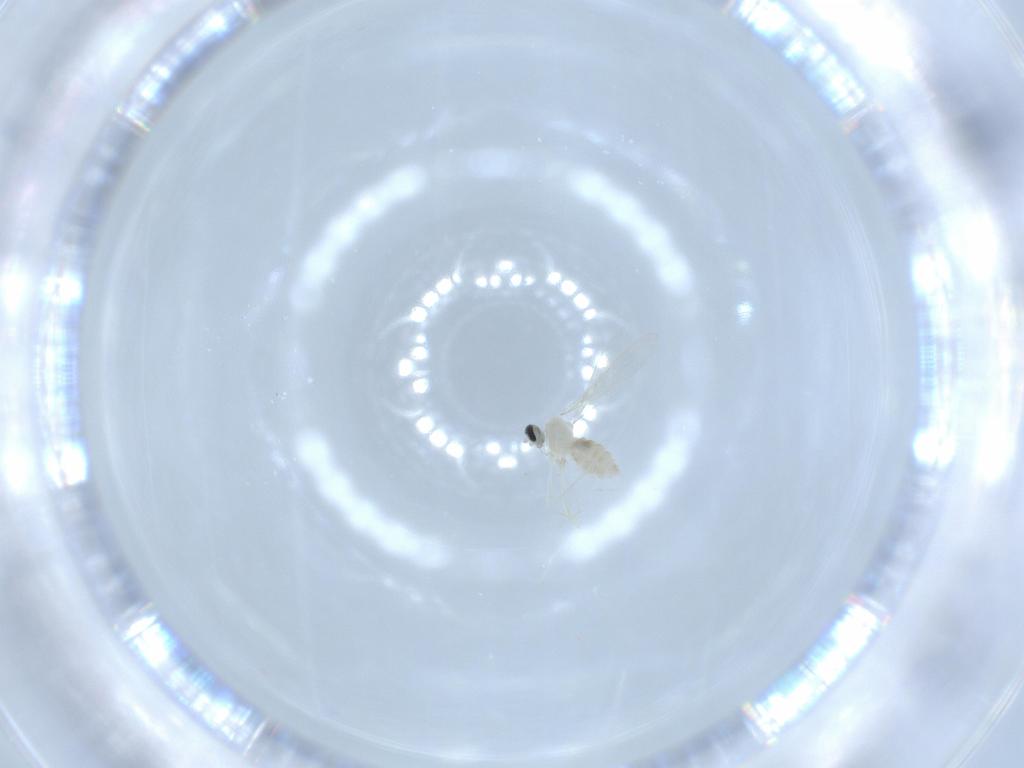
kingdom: Animalia
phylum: Arthropoda
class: Insecta
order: Diptera
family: Cecidomyiidae
